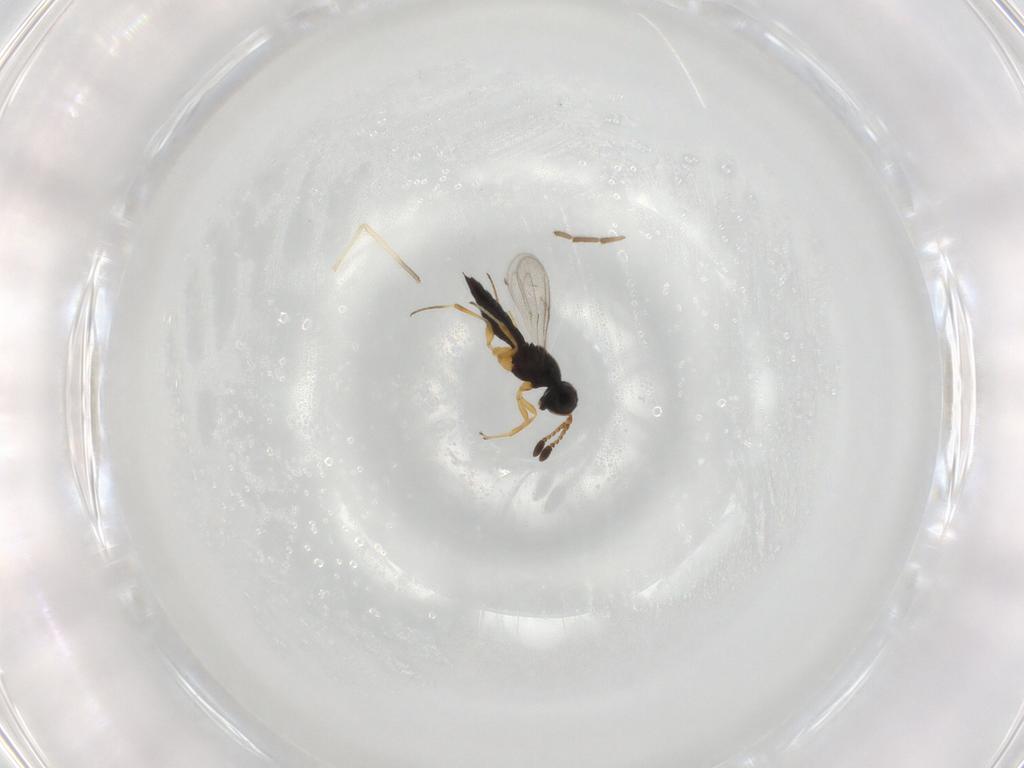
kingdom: Animalia
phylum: Arthropoda
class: Insecta
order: Hymenoptera
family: Scelionidae
